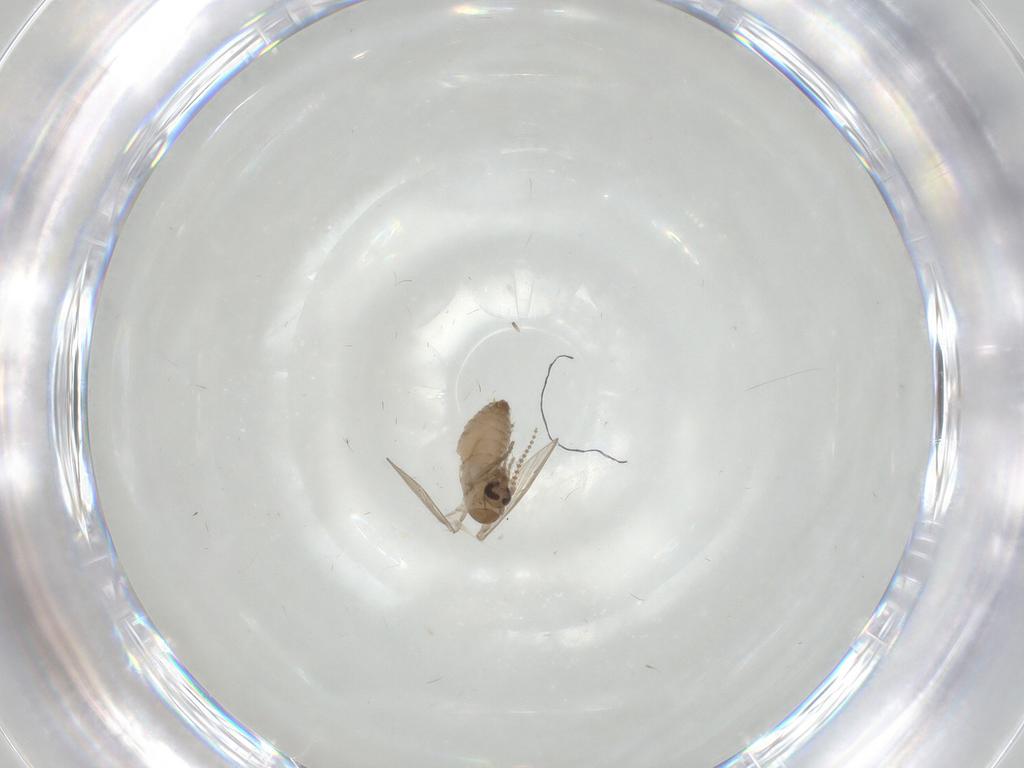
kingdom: Animalia
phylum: Arthropoda
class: Insecta
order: Diptera
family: Psychodidae
